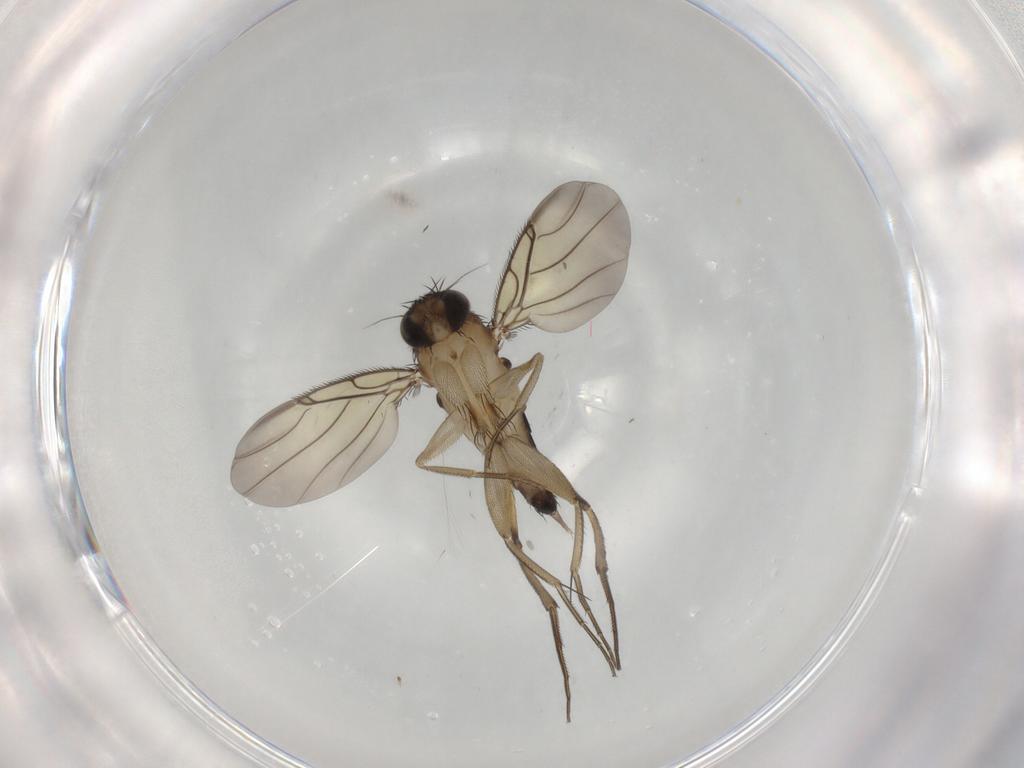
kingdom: Animalia
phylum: Arthropoda
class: Insecta
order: Diptera
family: Phoridae
